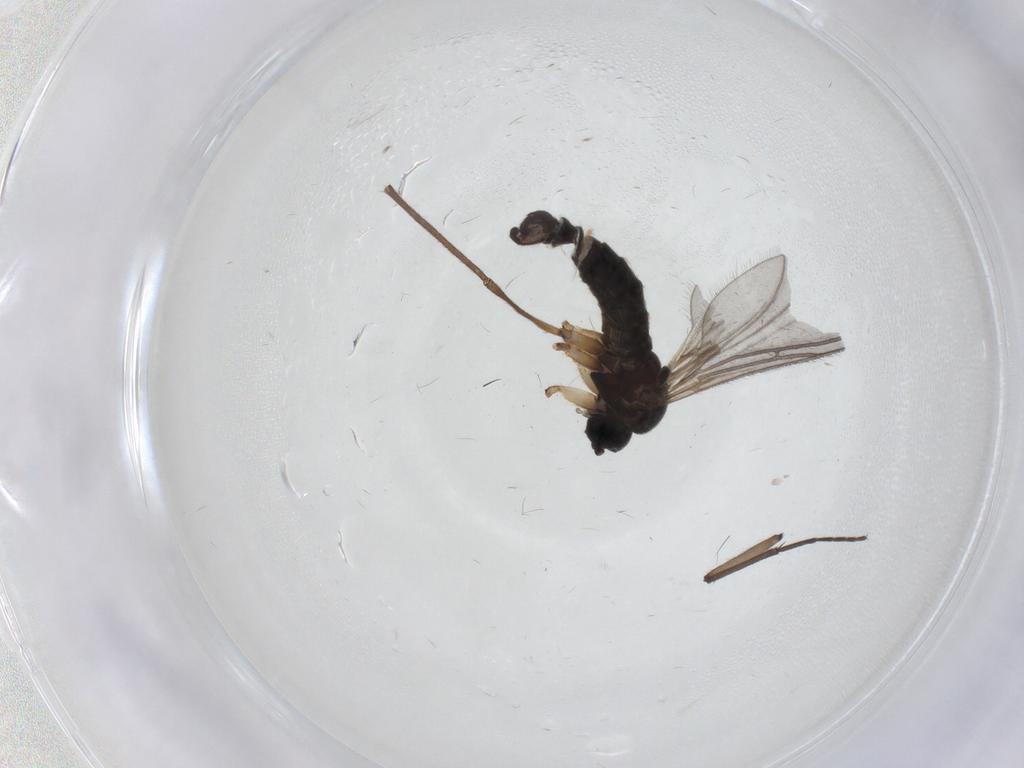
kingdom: Animalia
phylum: Arthropoda
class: Insecta
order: Diptera
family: Sciaridae
